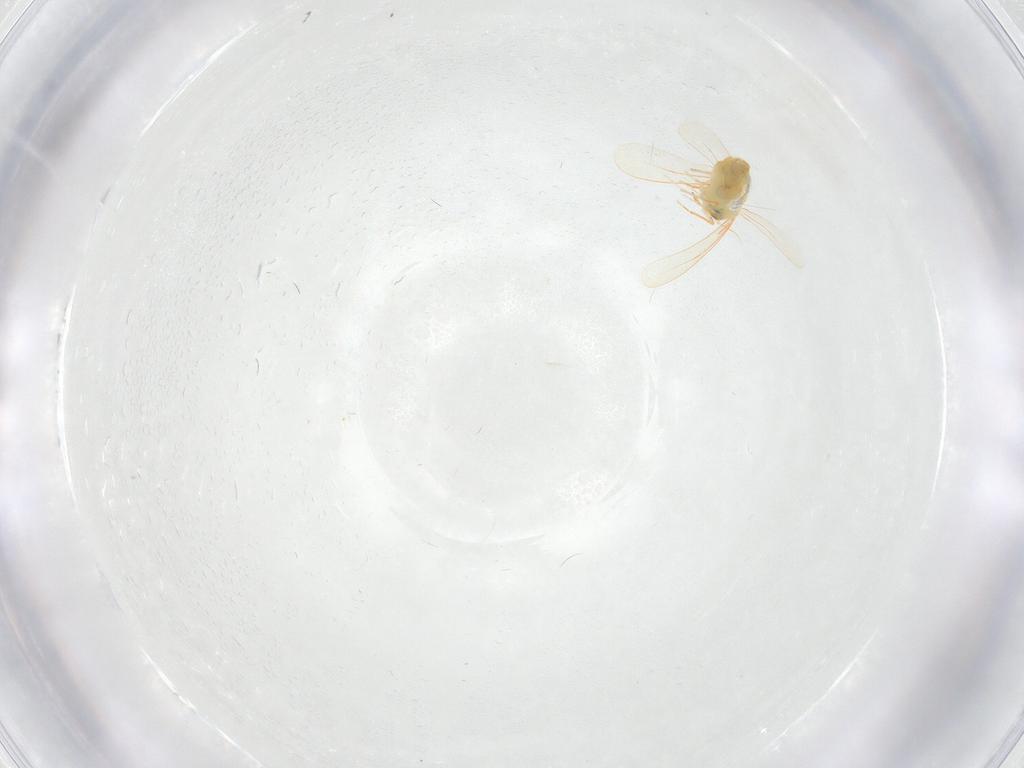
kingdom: Animalia
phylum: Arthropoda
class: Insecta
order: Hemiptera
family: Aleyrodidae
